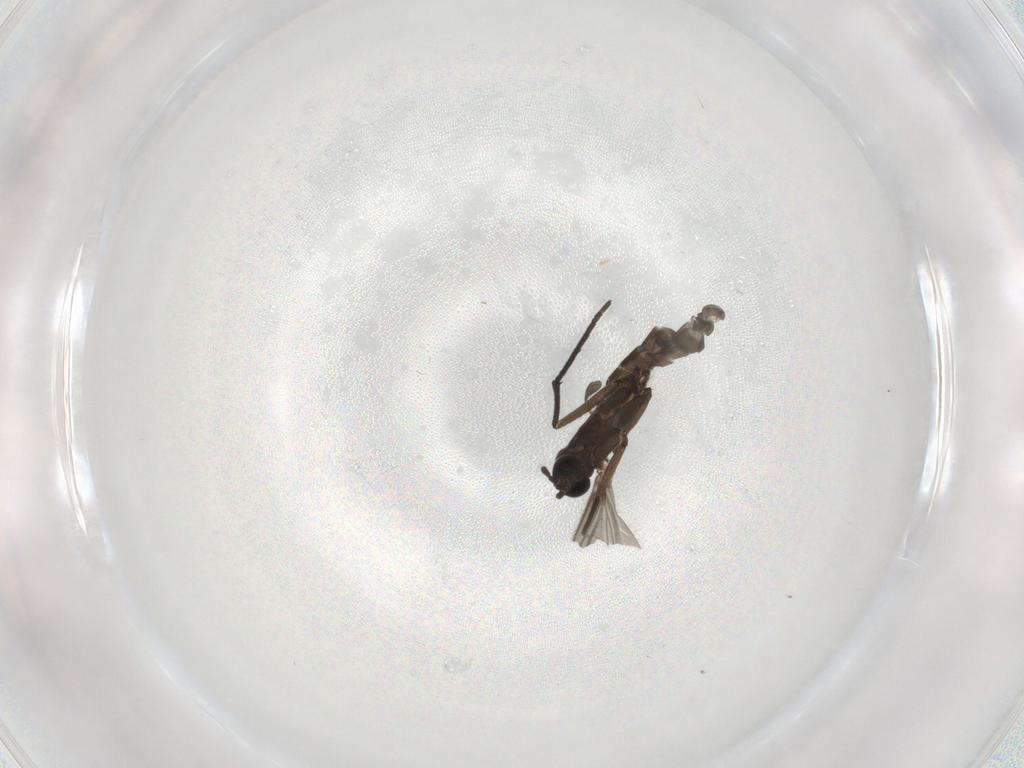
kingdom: Animalia
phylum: Arthropoda
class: Insecta
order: Diptera
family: Sciaridae
